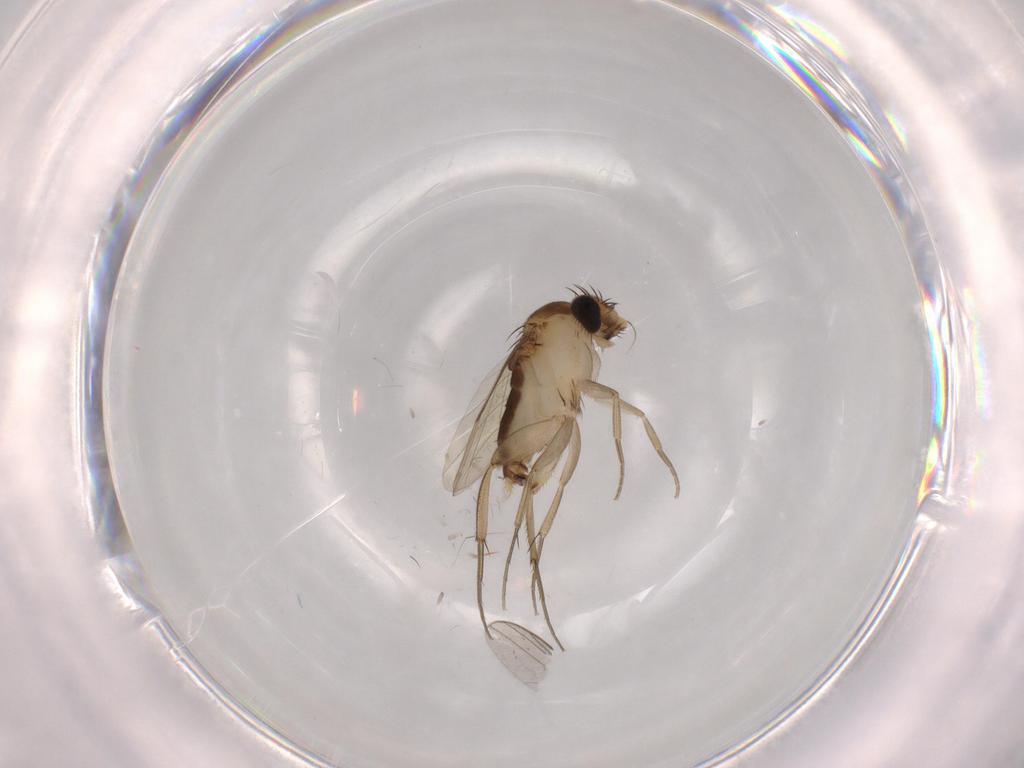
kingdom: Animalia
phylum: Arthropoda
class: Insecta
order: Diptera
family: Phoridae
